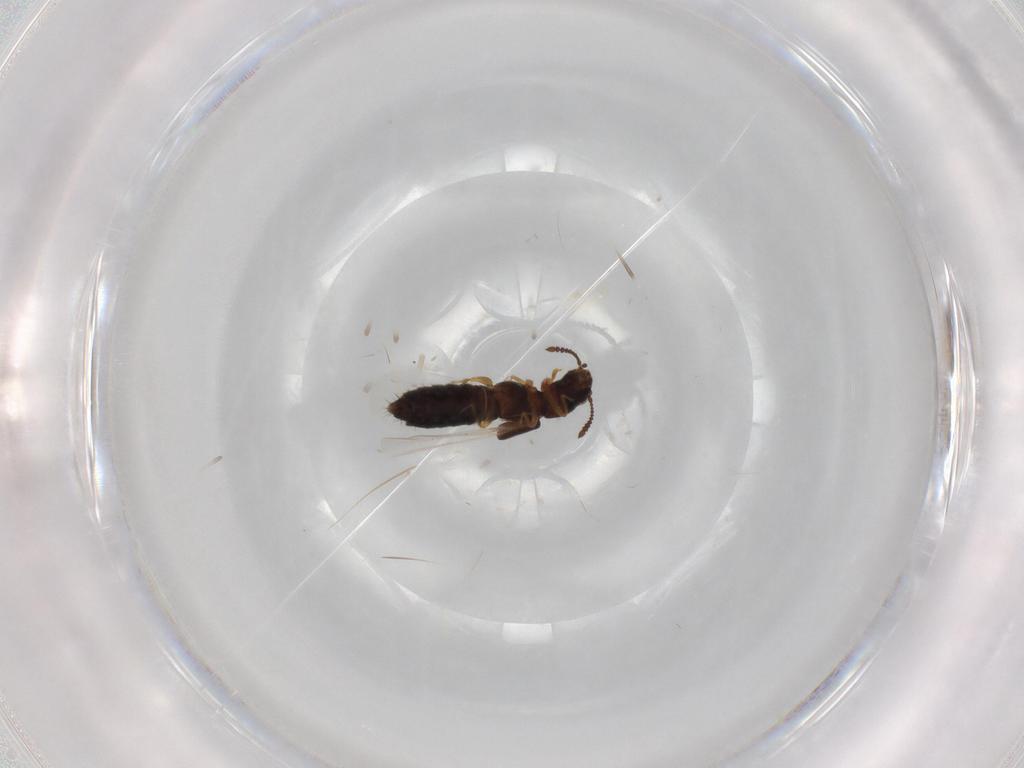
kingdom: Animalia
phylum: Arthropoda
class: Insecta
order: Coleoptera
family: Staphylinidae
